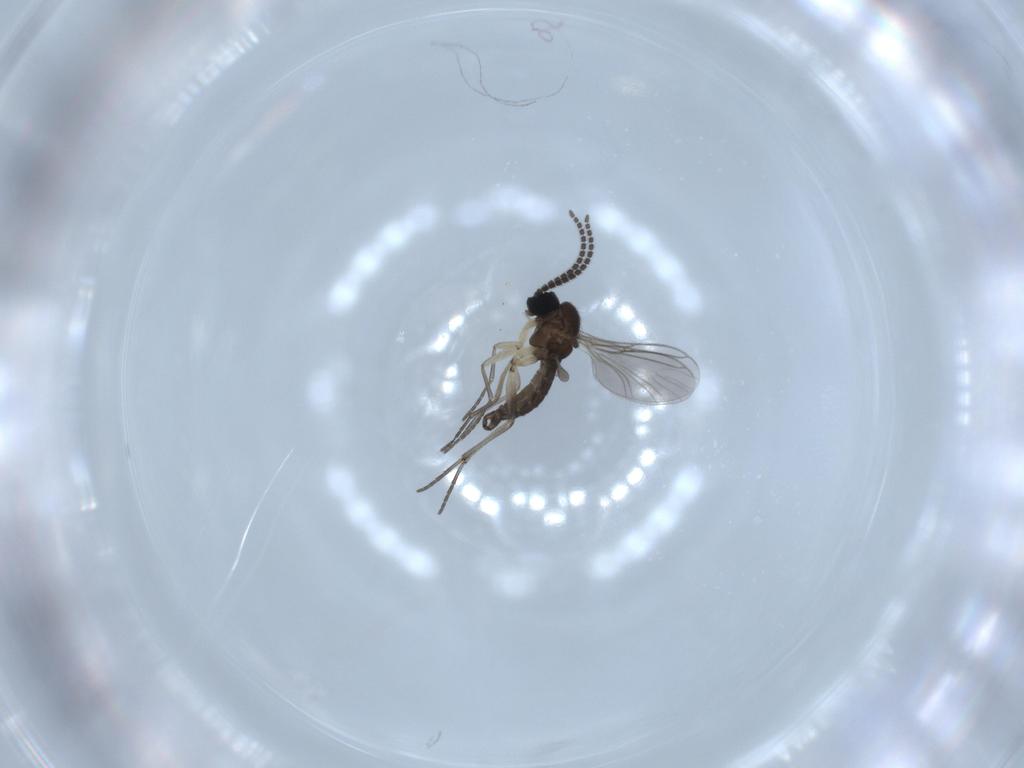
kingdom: Animalia
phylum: Arthropoda
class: Insecta
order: Diptera
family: Sciaridae
